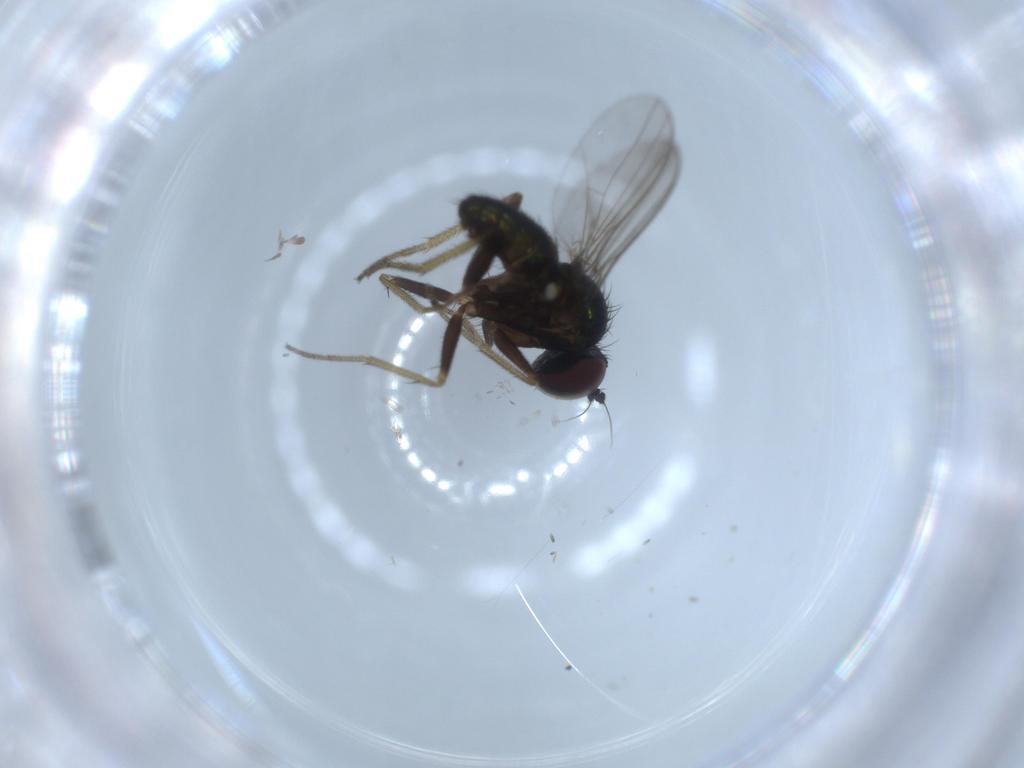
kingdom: Animalia
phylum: Arthropoda
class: Insecta
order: Diptera
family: Dolichopodidae
